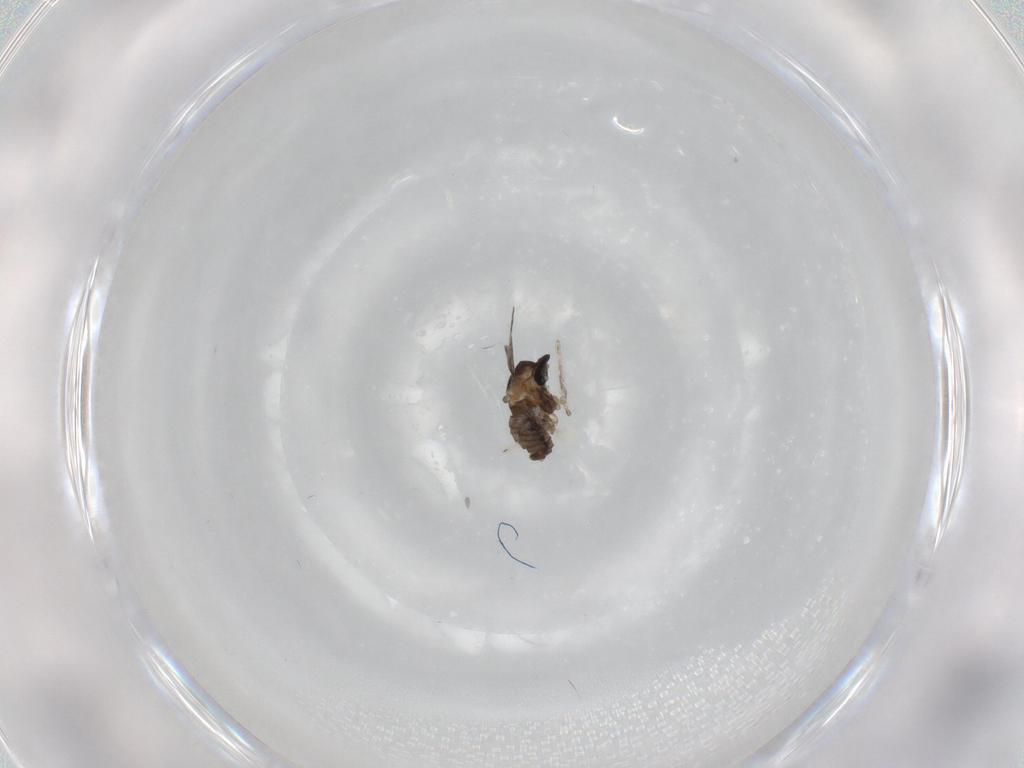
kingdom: Animalia
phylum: Arthropoda
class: Insecta
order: Diptera
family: Cecidomyiidae
